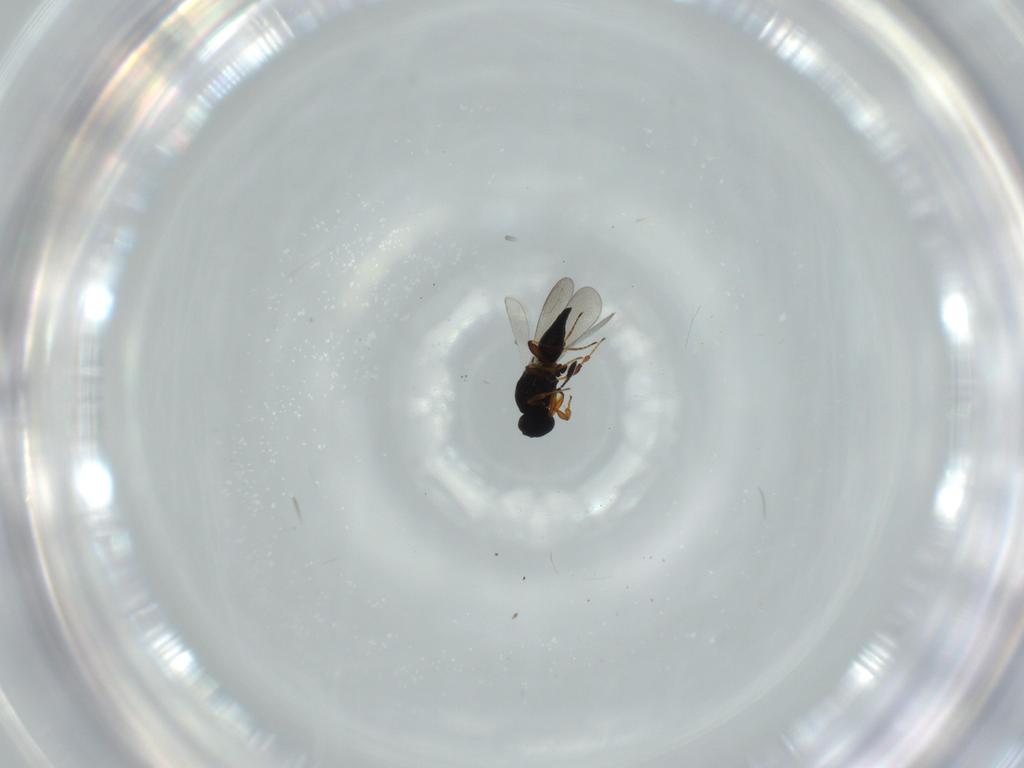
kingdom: Animalia
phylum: Arthropoda
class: Insecta
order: Hymenoptera
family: Platygastridae
